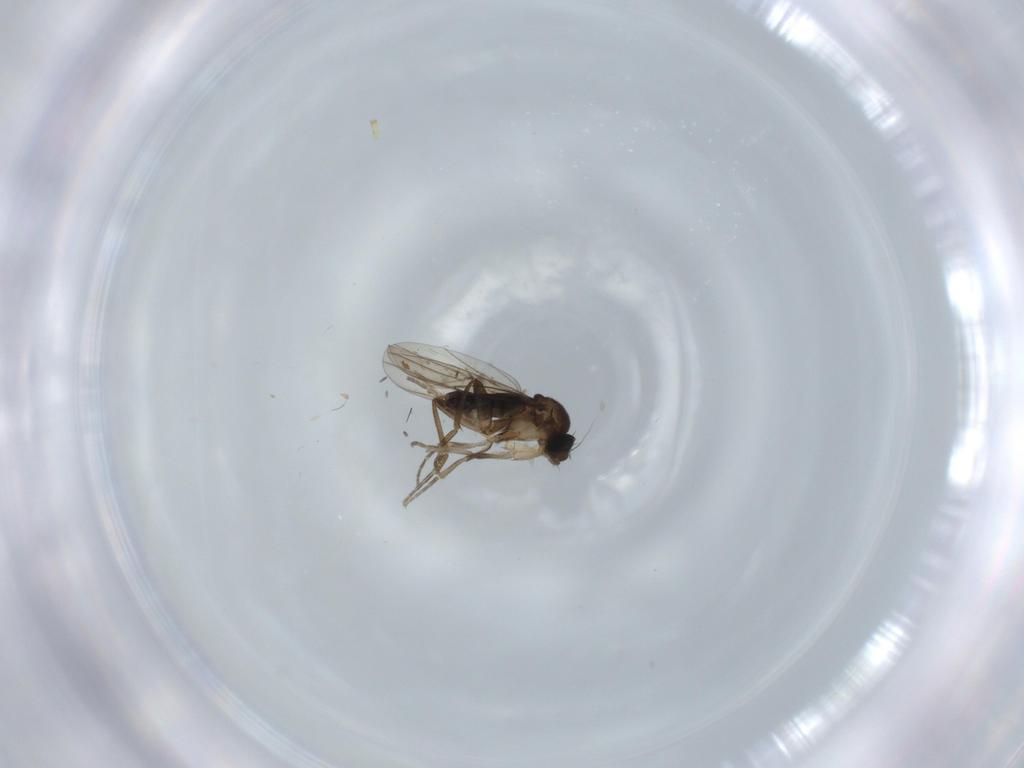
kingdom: Animalia
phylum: Arthropoda
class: Insecta
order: Diptera
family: Phoridae
